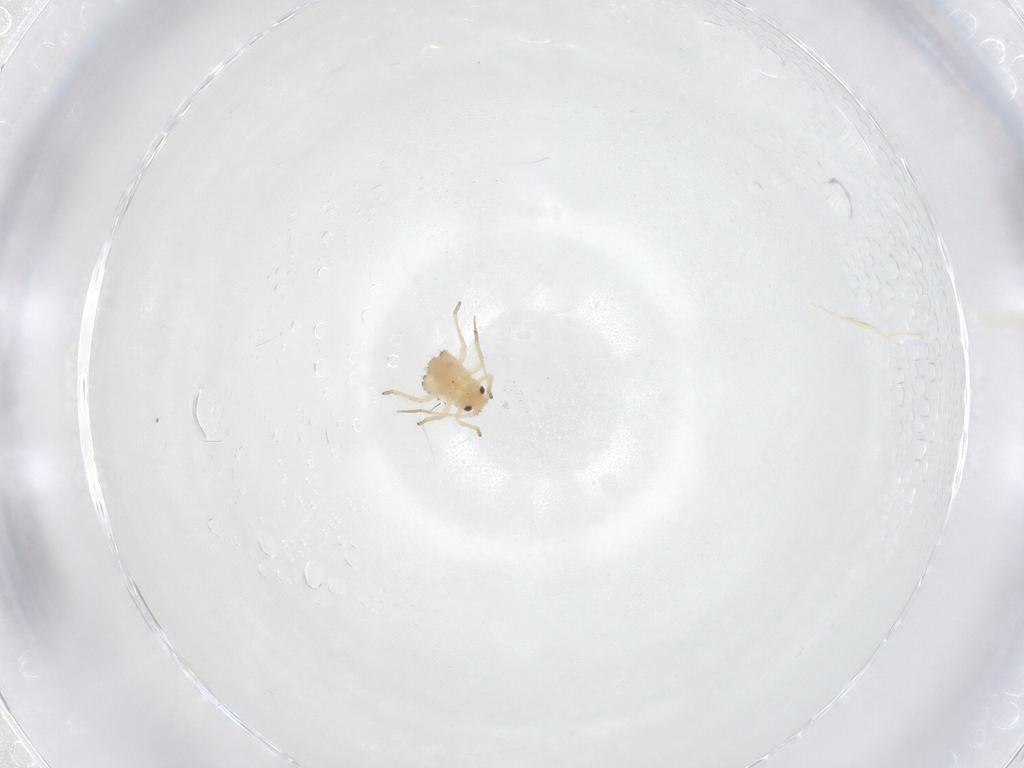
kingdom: Animalia
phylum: Arthropoda
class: Insecta
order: Hemiptera
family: Aphididae
